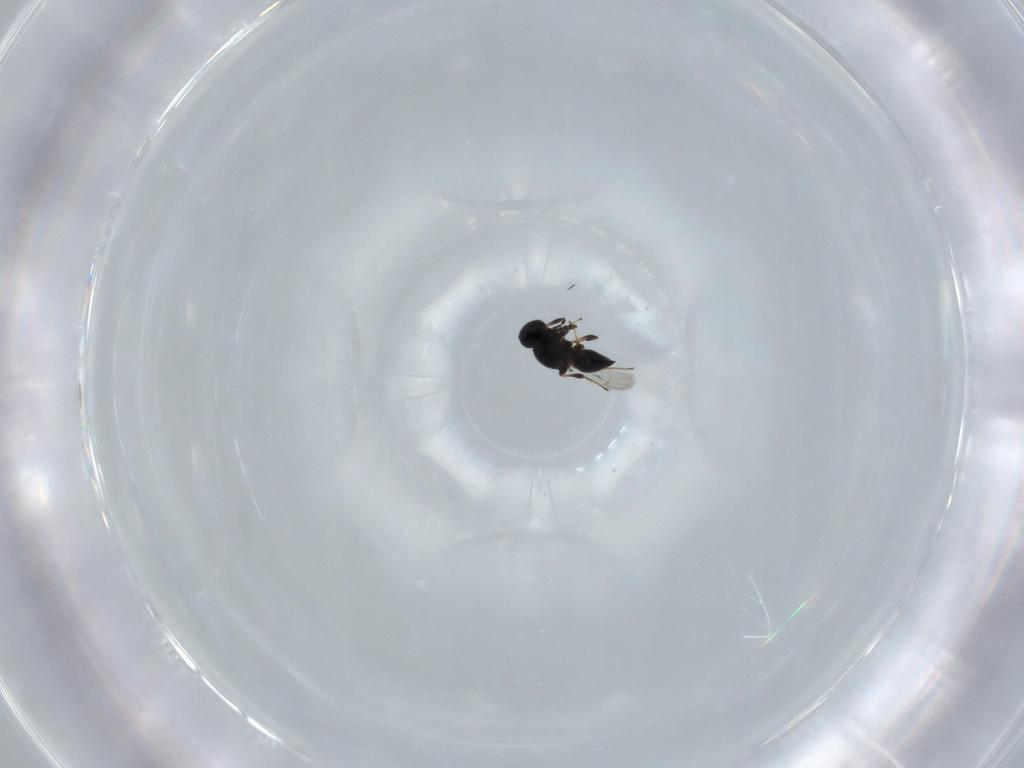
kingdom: Animalia
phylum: Arthropoda
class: Insecta
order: Hymenoptera
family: Platygastridae
